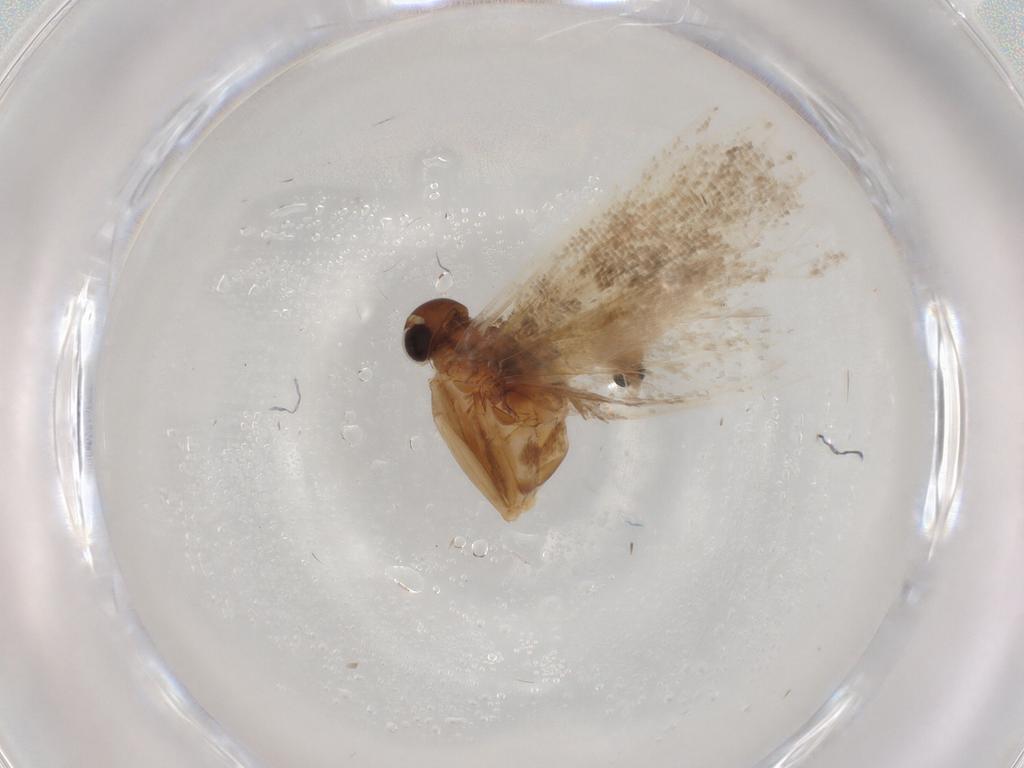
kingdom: Animalia
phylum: Arthropoda
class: Insecta
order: Lepidoptera
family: Gelechiidae
